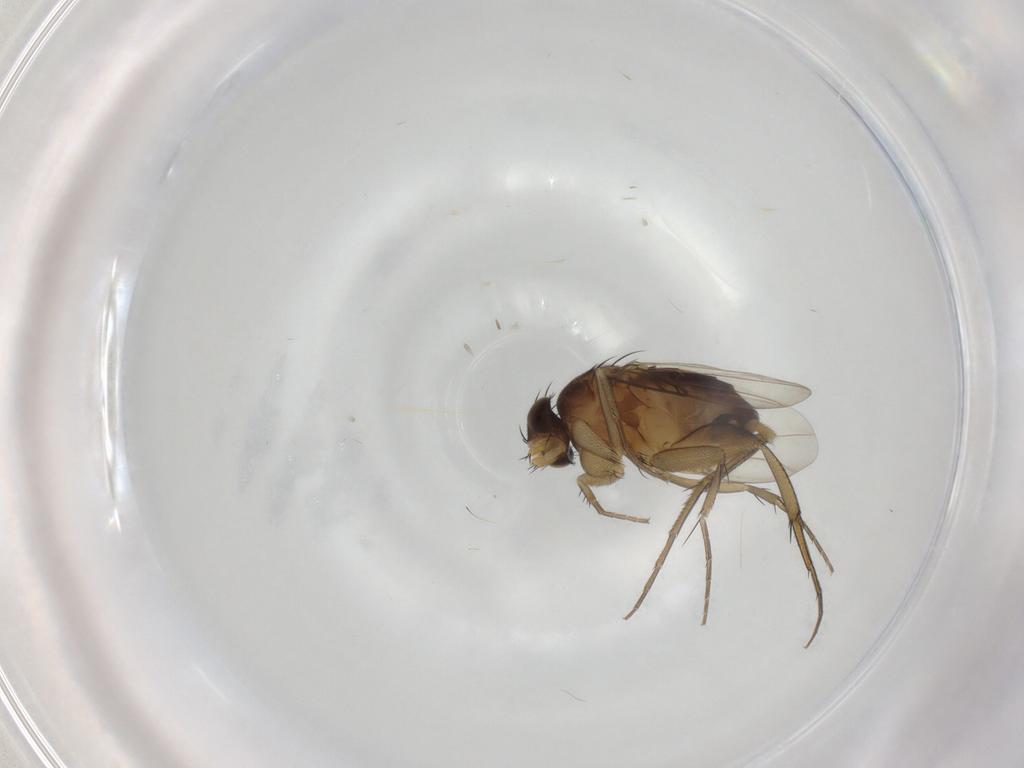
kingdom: Animalia
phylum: Arthropoda
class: Insecta
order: Diptera
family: Phoridae
